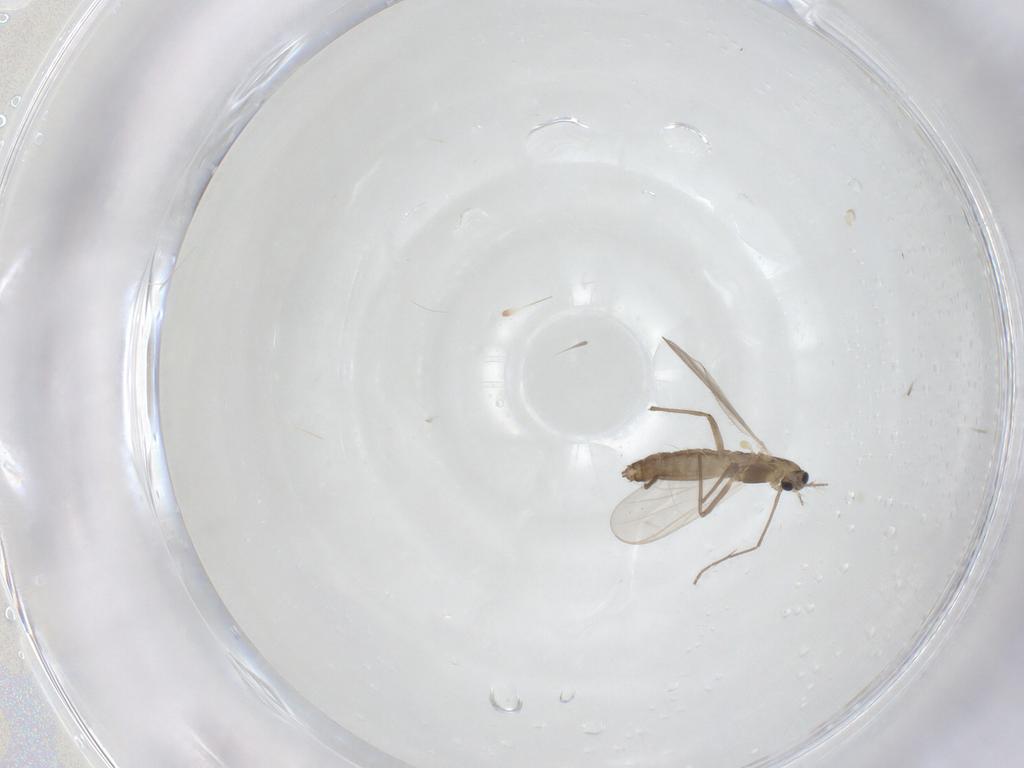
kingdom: Animalia
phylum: Arthropoda
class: Insecta
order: Diptera
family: Chironomidae
